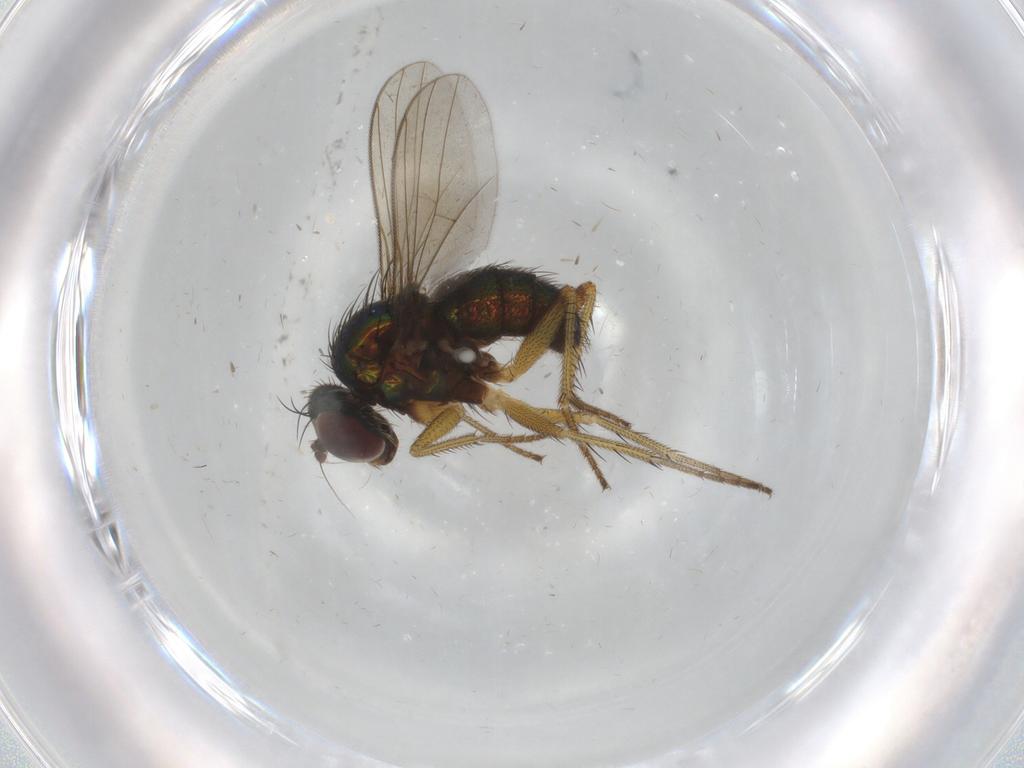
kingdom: Animalia
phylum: Arthropoda
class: Insecta
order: Diptera
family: Dolichopodidae
